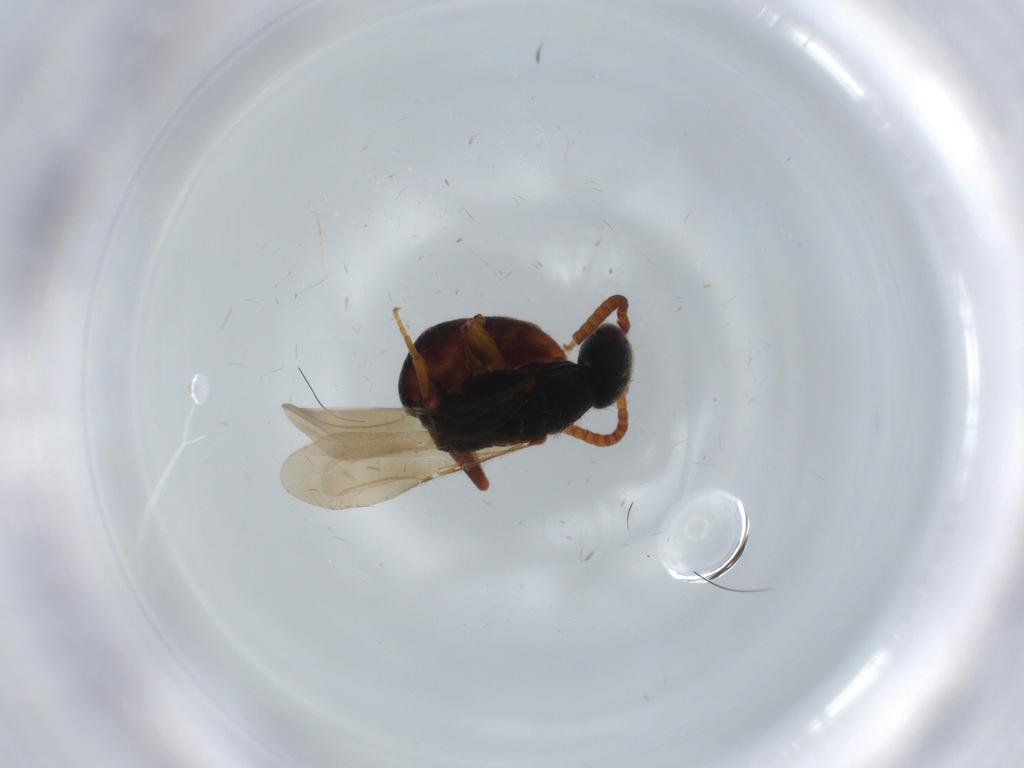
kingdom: Animalia
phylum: Arthropoda
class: Insecta
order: Hymenoptera
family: Bethylidae
